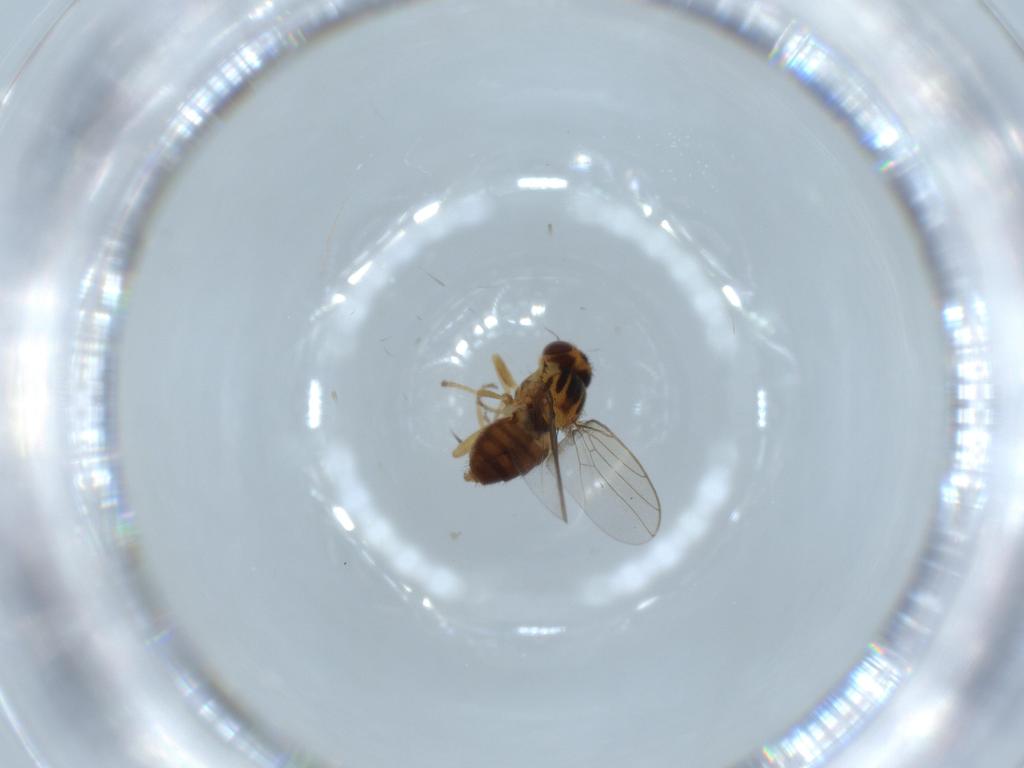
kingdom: Animalia
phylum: Arthropoda
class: Insecta
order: Diptera
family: Chloropidae
